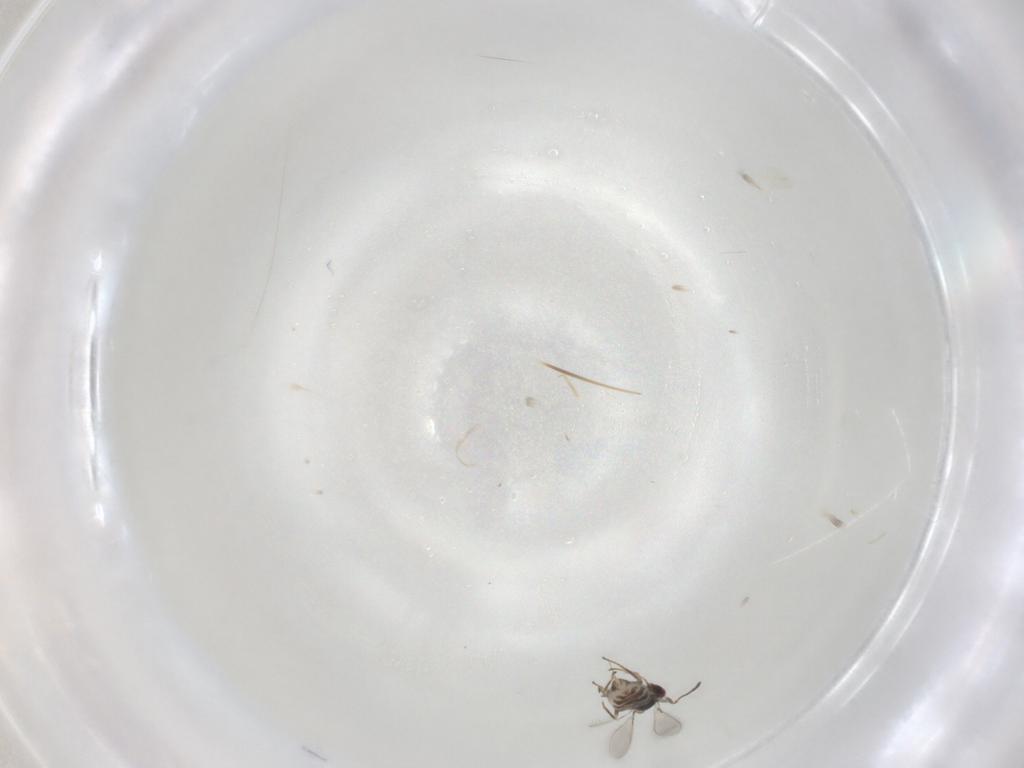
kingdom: Animalia
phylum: Arthropoda
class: Insecta
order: Hymenoptera
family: Mymaridae
